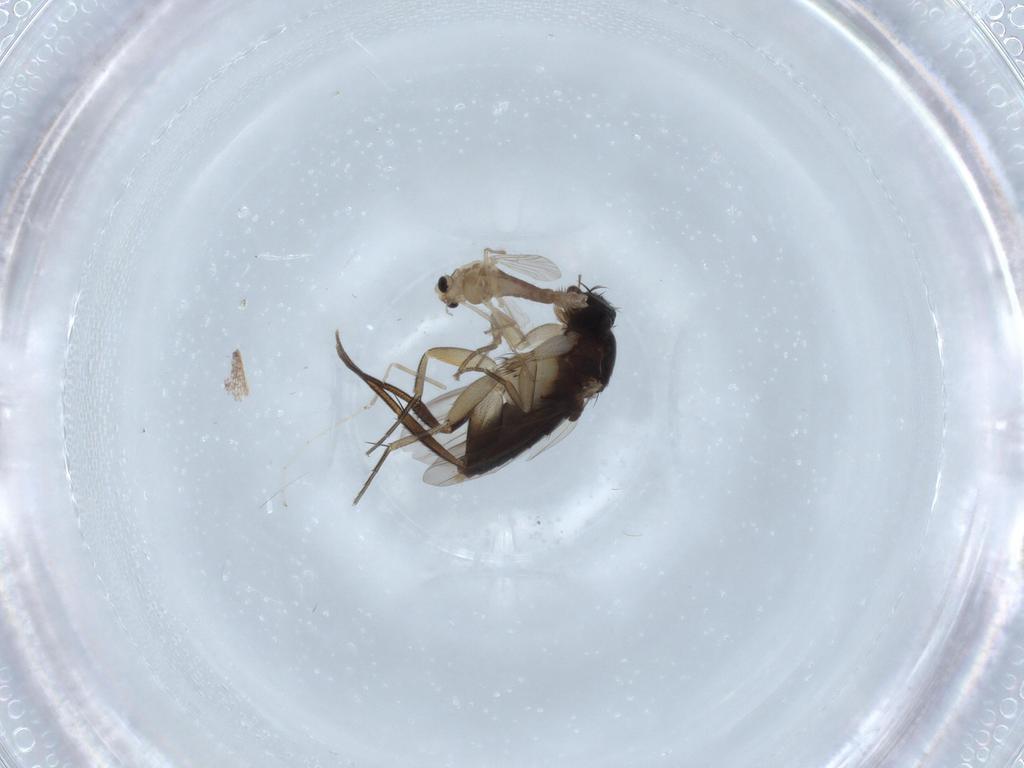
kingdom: Animalia
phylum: Arthropoda
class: Insecta
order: Diptera
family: Phoridae
